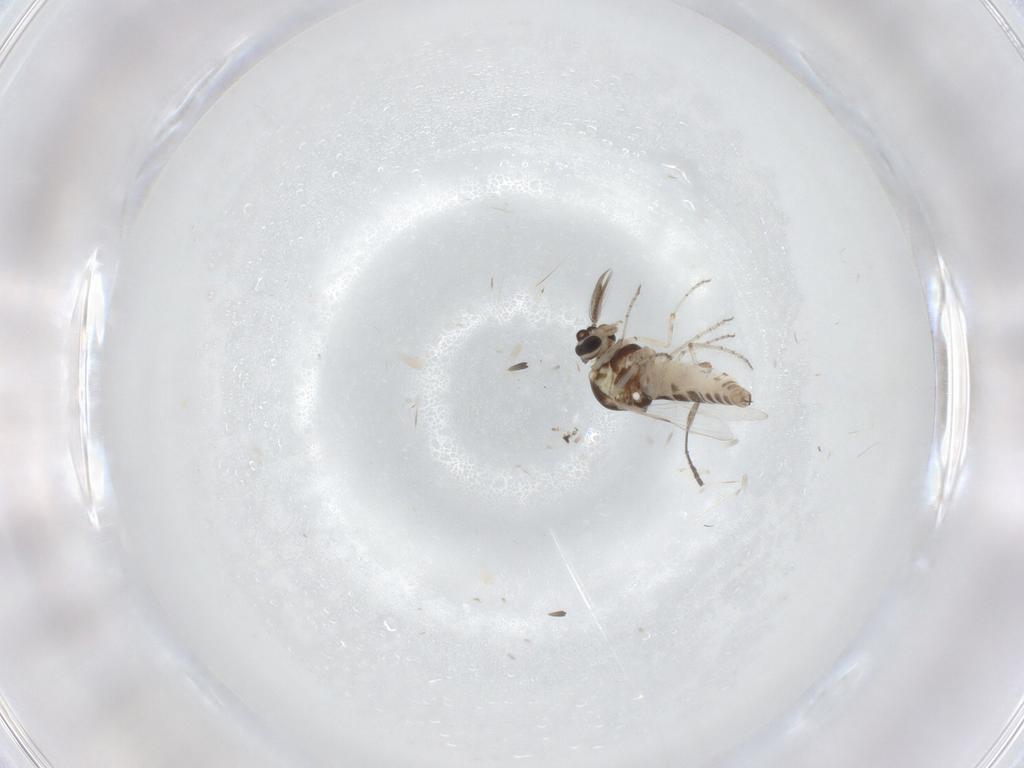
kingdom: Animalia
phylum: Arthropoda
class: Insecta
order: Diptera
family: Ceratopogonidae
